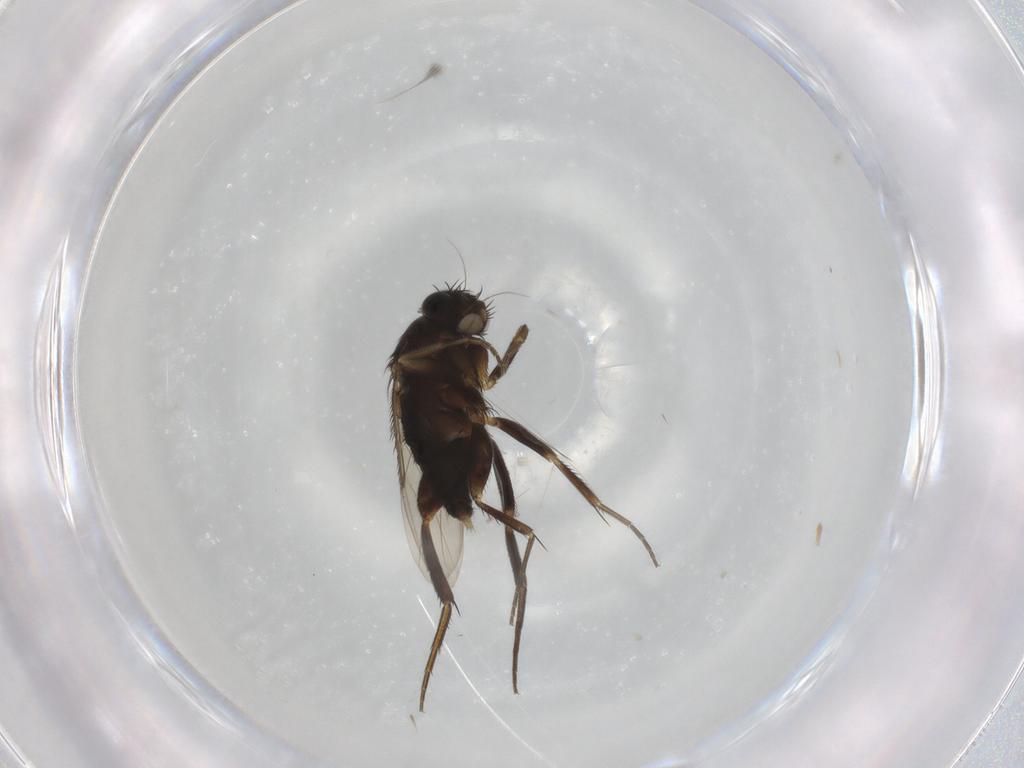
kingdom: Animalia
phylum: Arthropoda
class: Insecta
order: Diptera
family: Phoridae
